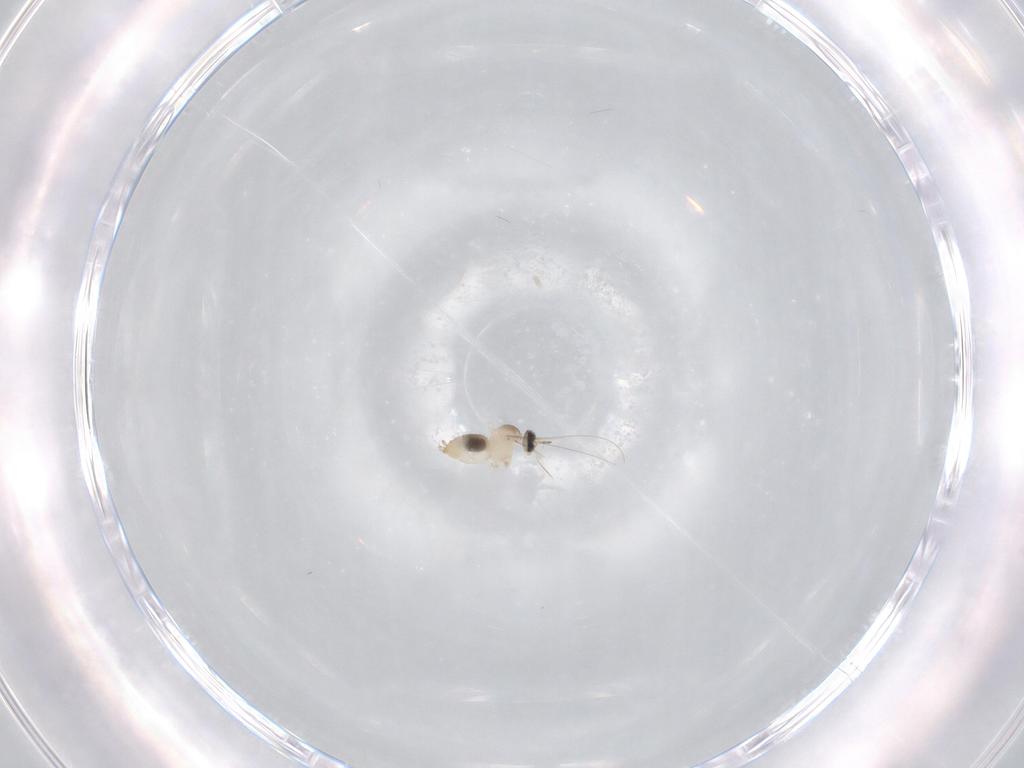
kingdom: Animalia
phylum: Arthropoda
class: Insecta
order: Diptera
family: Cecidomyiidae
